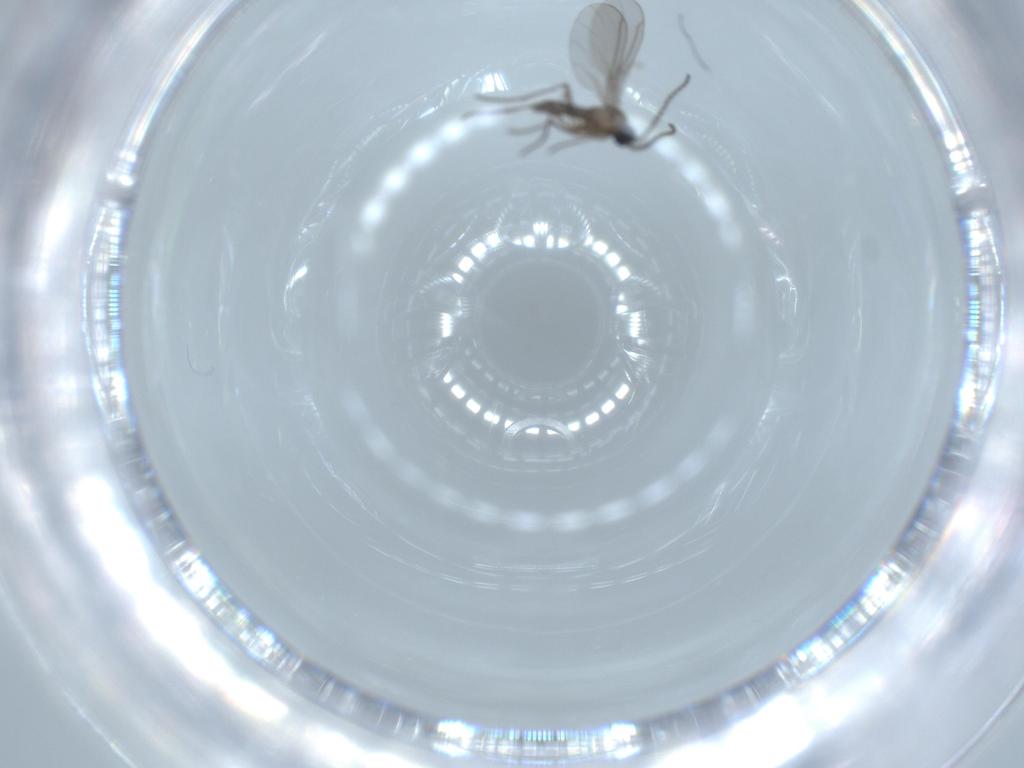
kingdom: Animalia
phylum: Arthropoda
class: Insecta
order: Diptera
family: Sciaridae
